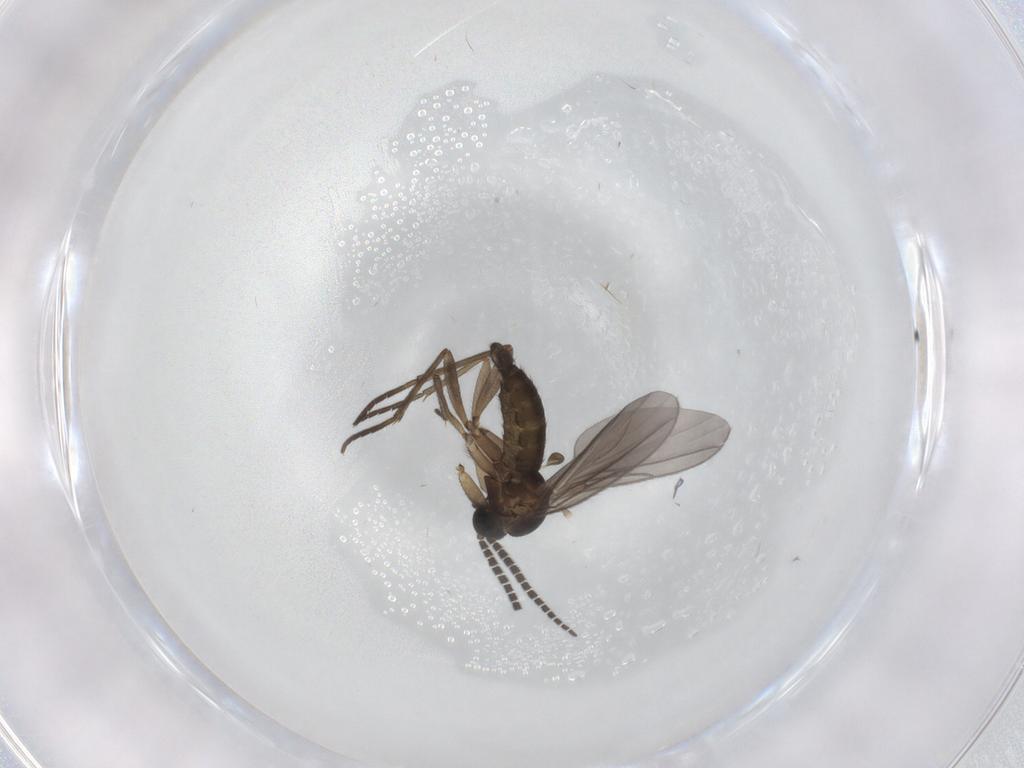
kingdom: Animalia
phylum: Arthropoda
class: Insecta
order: Diptera
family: Sciaridae
